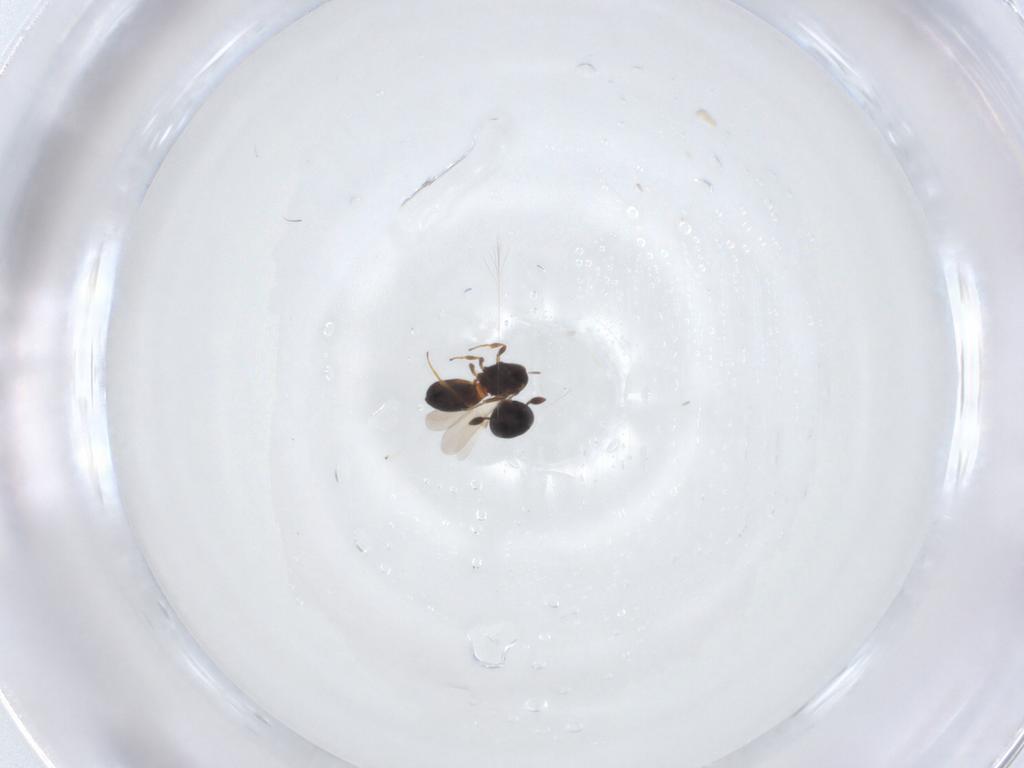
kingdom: Animalia
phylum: Arthropoda
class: Insecta
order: Hymenoptera
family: Scelionidae
